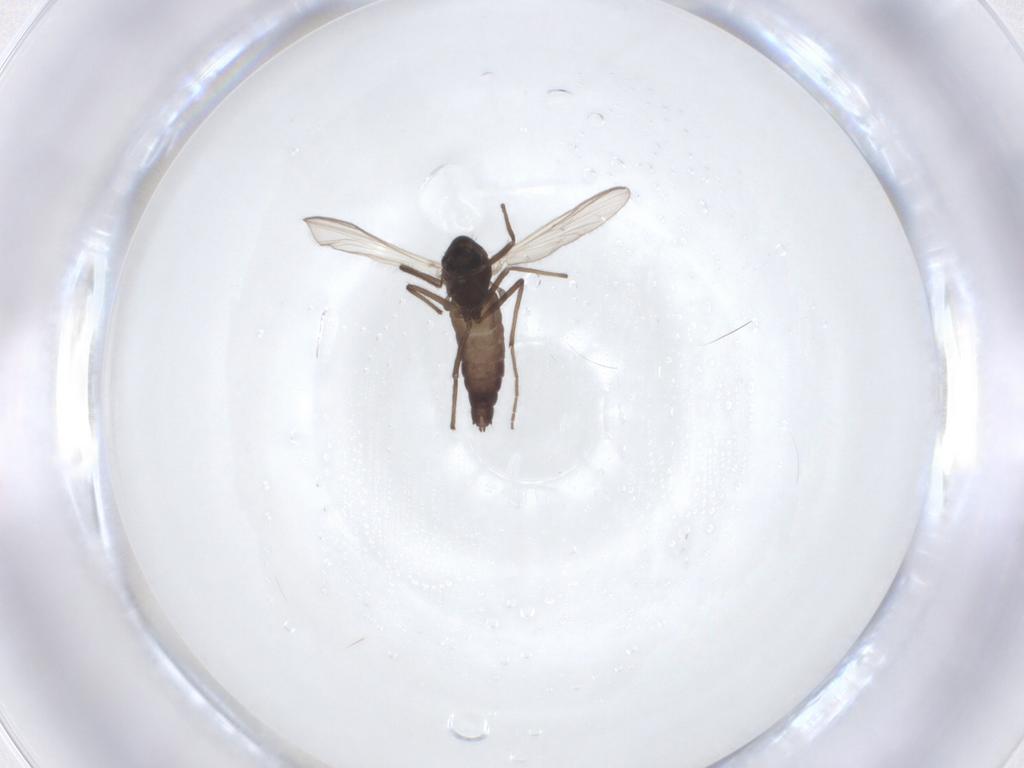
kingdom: Animalia
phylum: Arthropoda
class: Insecta
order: Diptera
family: Chironomidae
